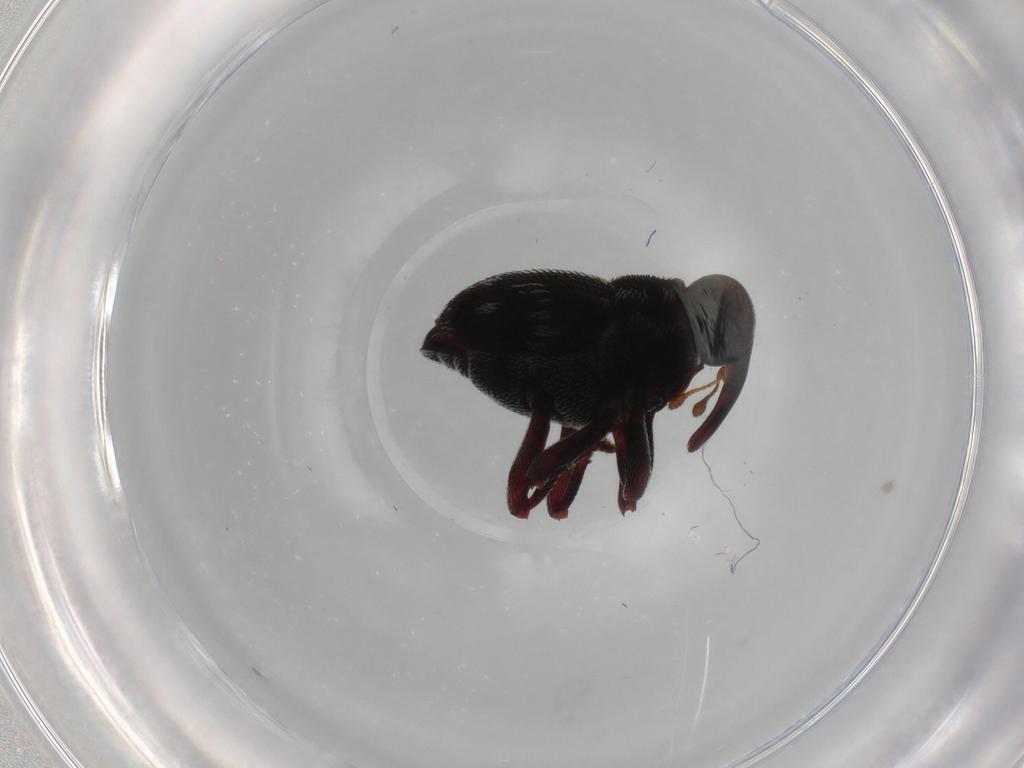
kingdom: Animalia
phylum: Arthropoda
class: Insecta
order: Coleoptera
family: Curculionidae
